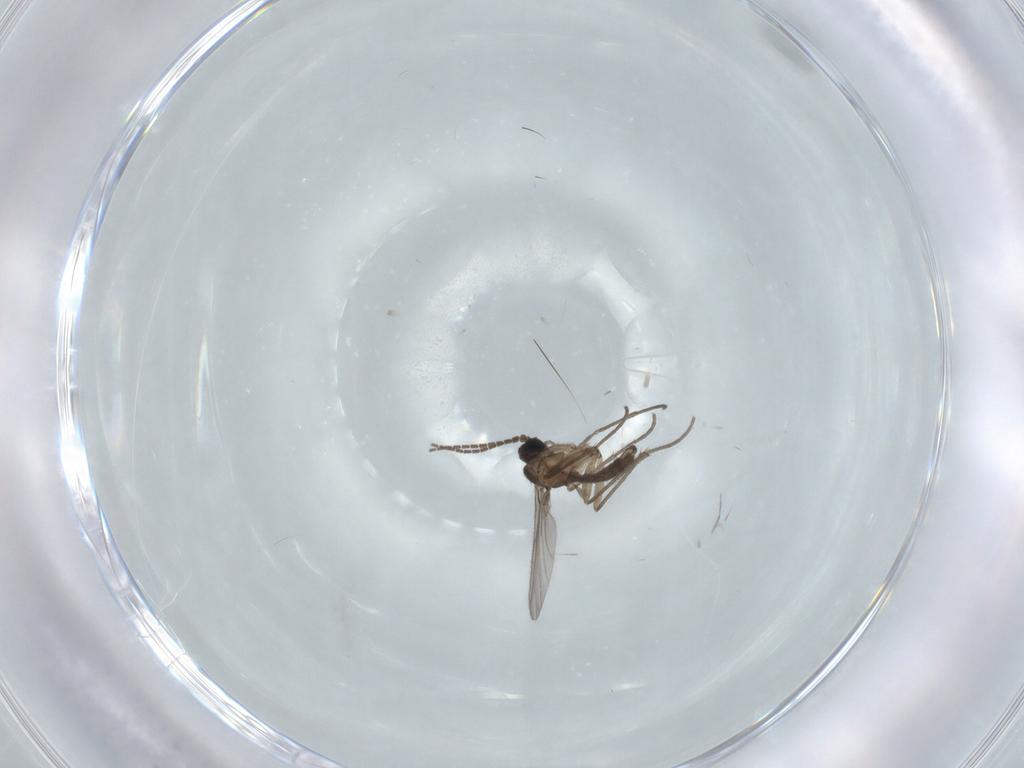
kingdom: Animalia
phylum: Arthropoda
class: Insecta
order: Diptera
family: Sciaridae
